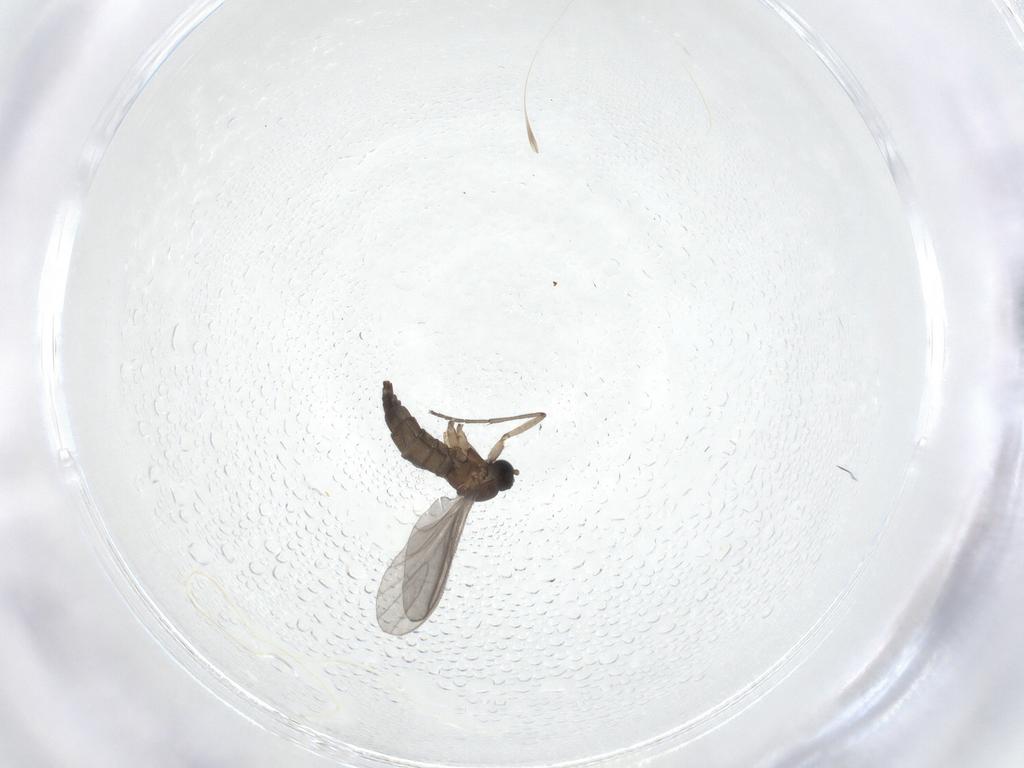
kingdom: Animalia
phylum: Arthropoda
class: Insecta
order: Diptera
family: Sciaridae
